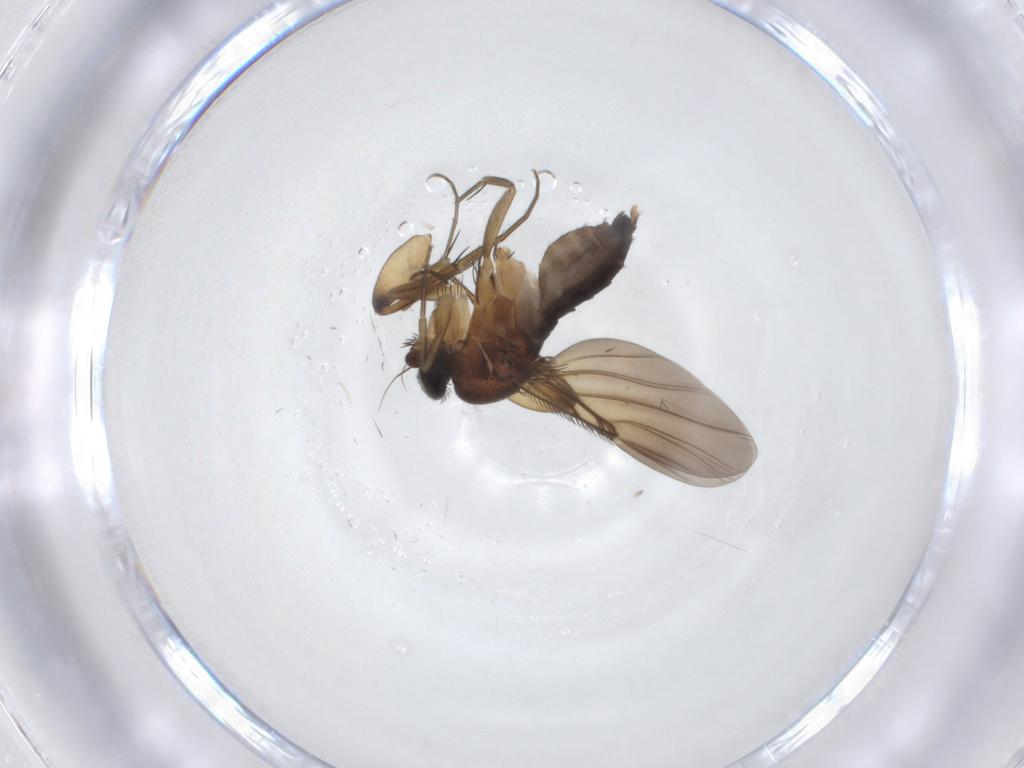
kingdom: Animalia
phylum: Arthropoda
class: Insecta
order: Diptera
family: Phoridae
